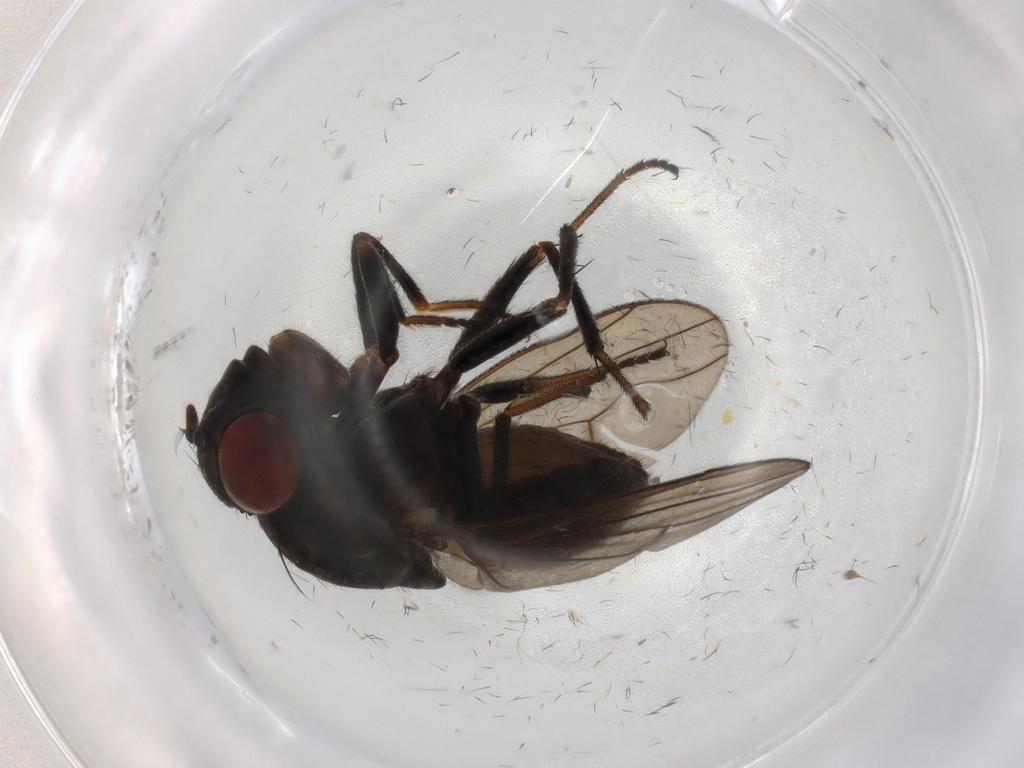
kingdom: Animalia
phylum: Arthropoda
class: Insecta
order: Diptera
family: Ephydridae
